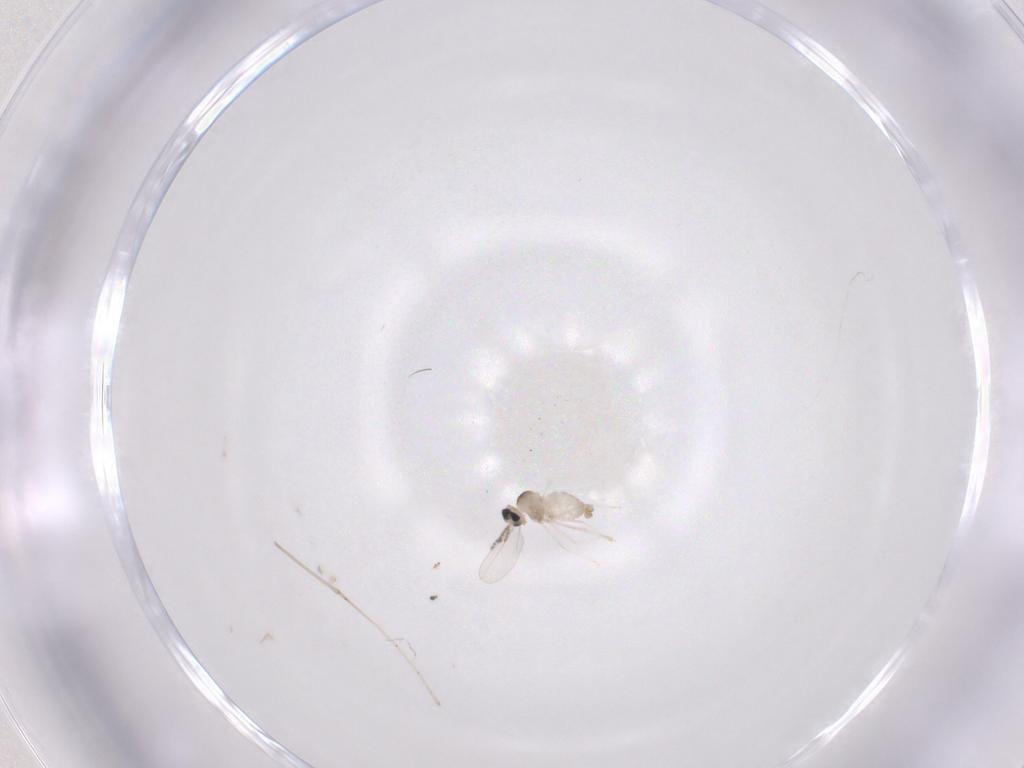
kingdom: Animalia
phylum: Arthropoda
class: Insecta
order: Diptera
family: Cecidomyiidae
